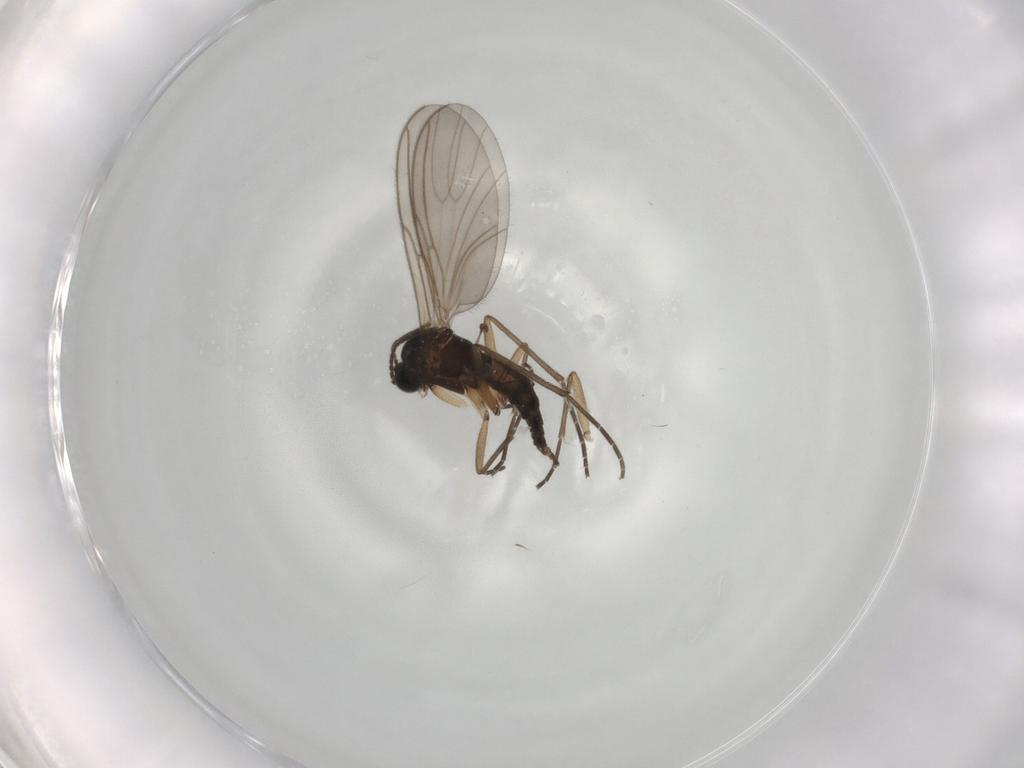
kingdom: Animalia
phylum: Arthropoda
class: Insecta
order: Diptera
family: Sciaridae
